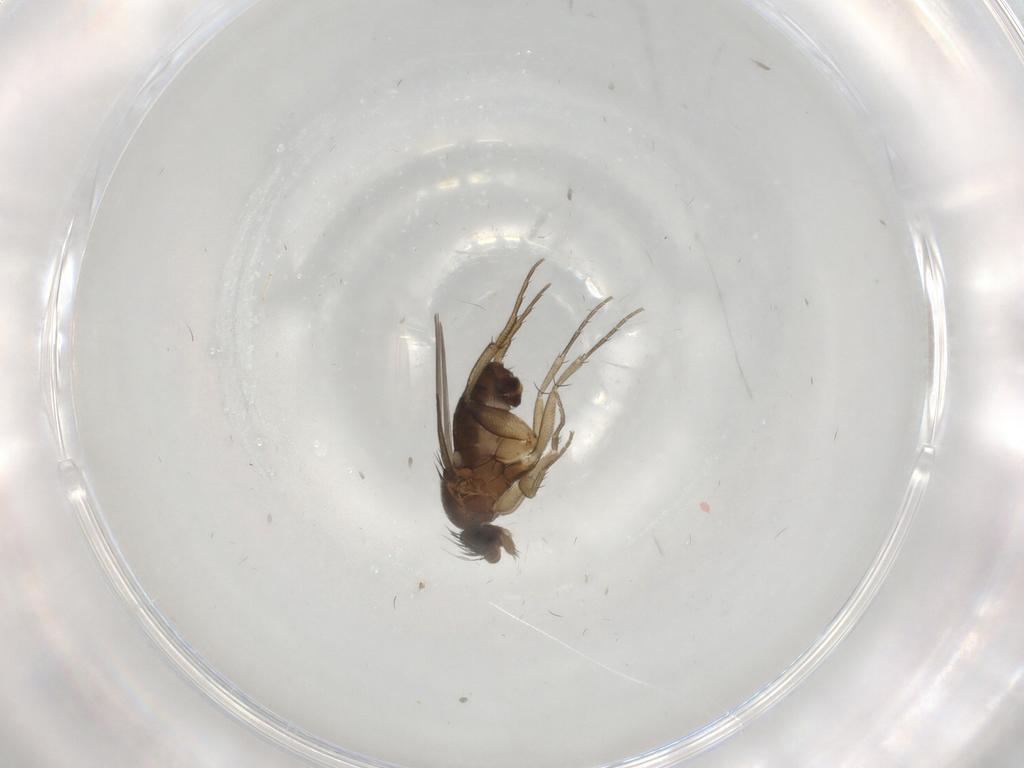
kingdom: Animalia
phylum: Arthropoda
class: Insecta
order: Diptera
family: Phoridae
